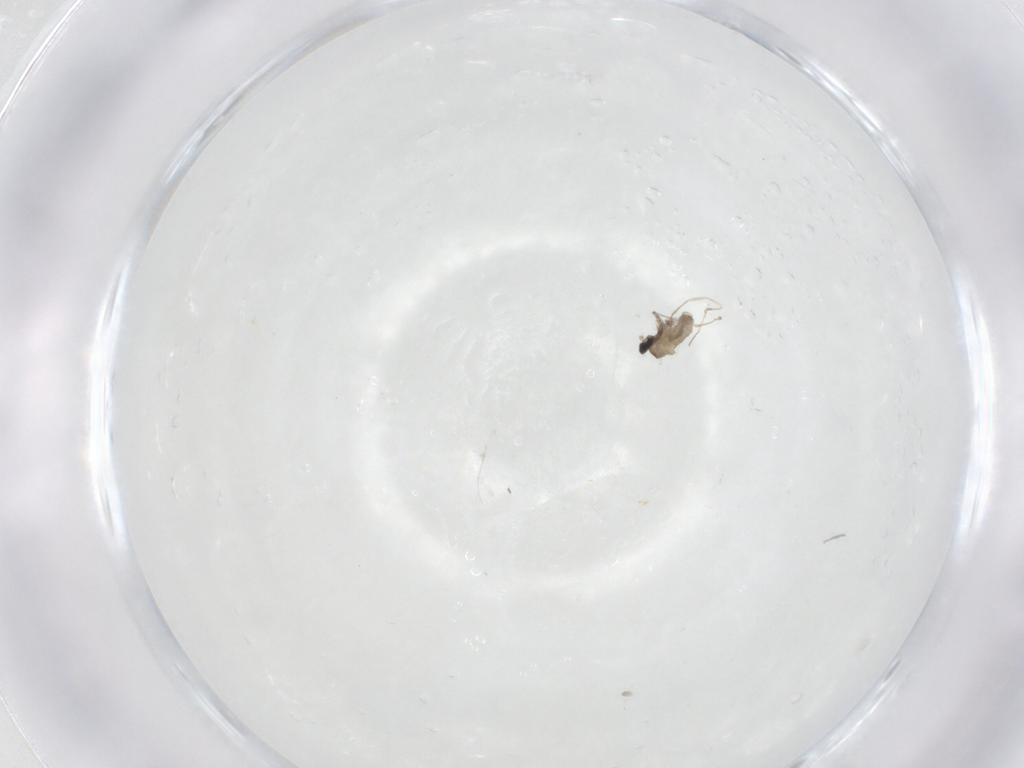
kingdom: Animalia
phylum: Arthropoda
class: Insecta
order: Diptera
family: Cecidomyiidae
